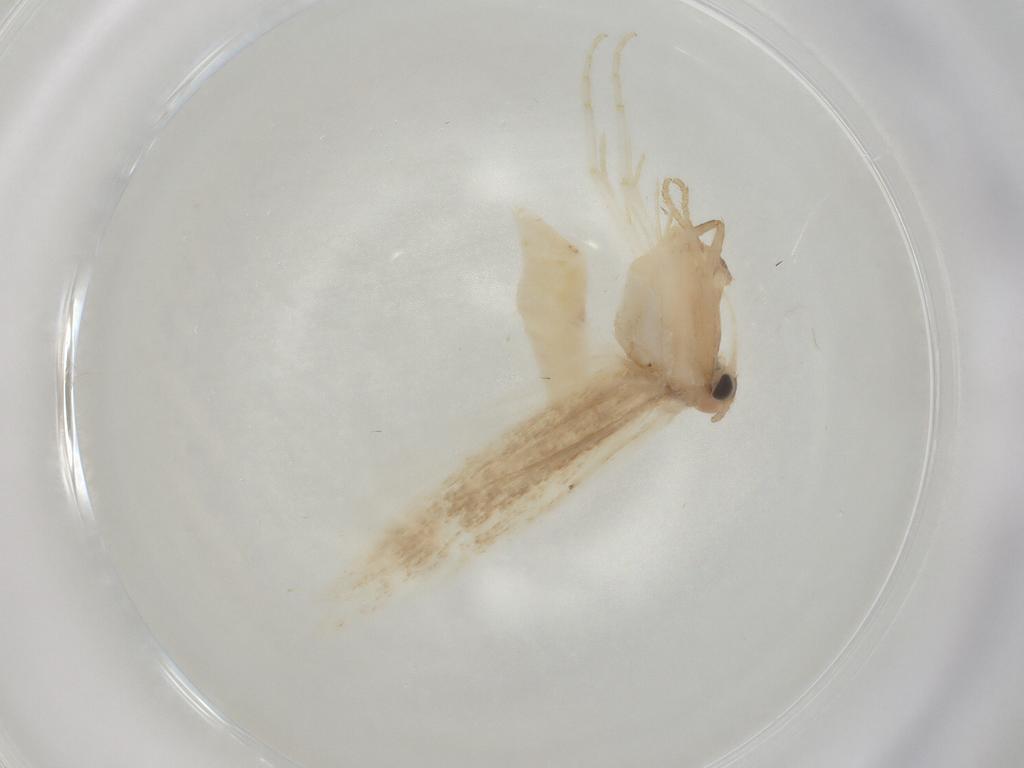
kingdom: Animalia
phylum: Arthropoda
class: Insecta
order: Lepidoptera
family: Gelechiidae
